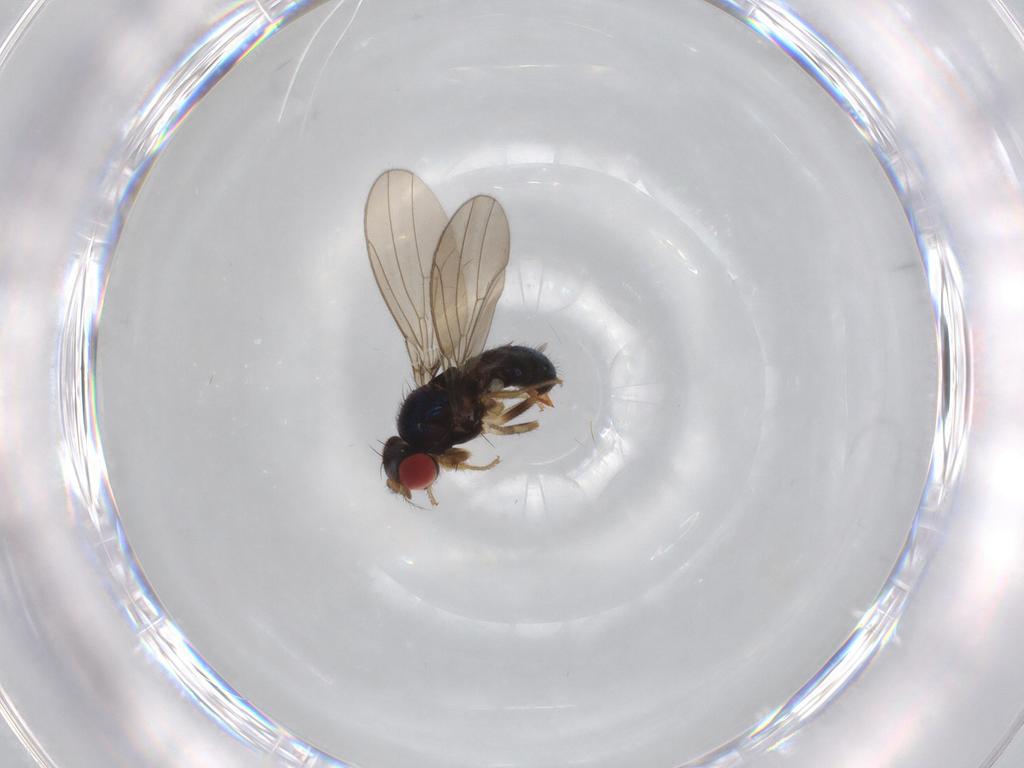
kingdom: Animalia
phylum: Arthropoda
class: Insecta
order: Diptera
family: Drosophilidae
